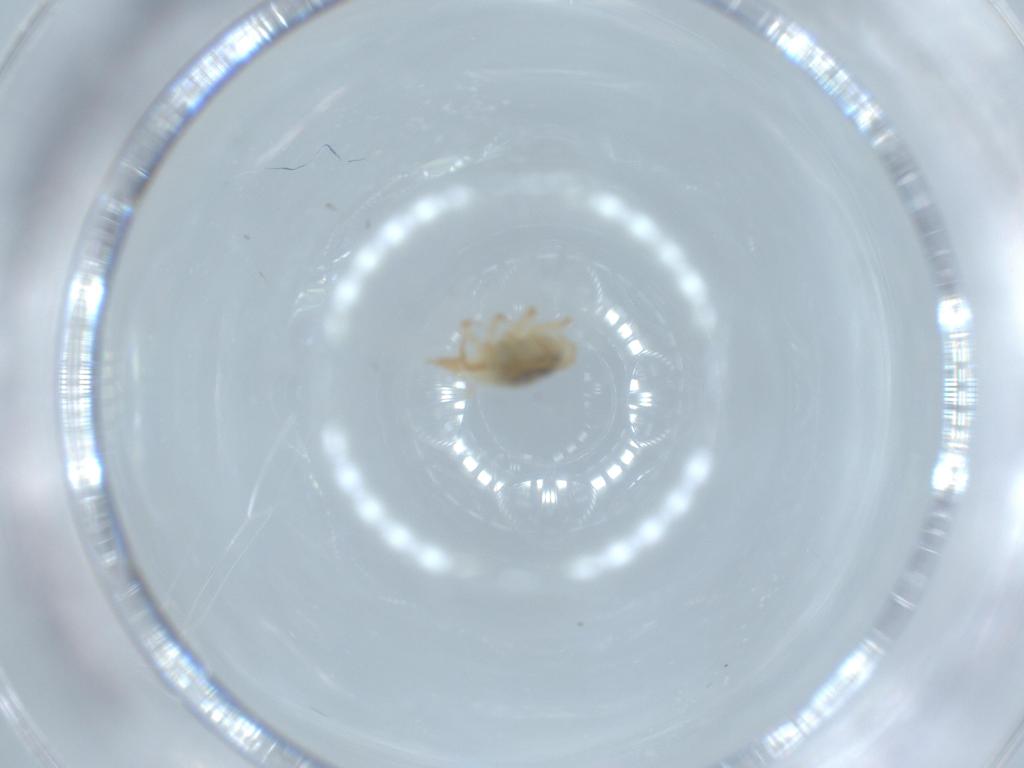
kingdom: Animalia
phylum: Arthropoda
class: Arachnida
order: Trombidiformes
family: Bdellidae
